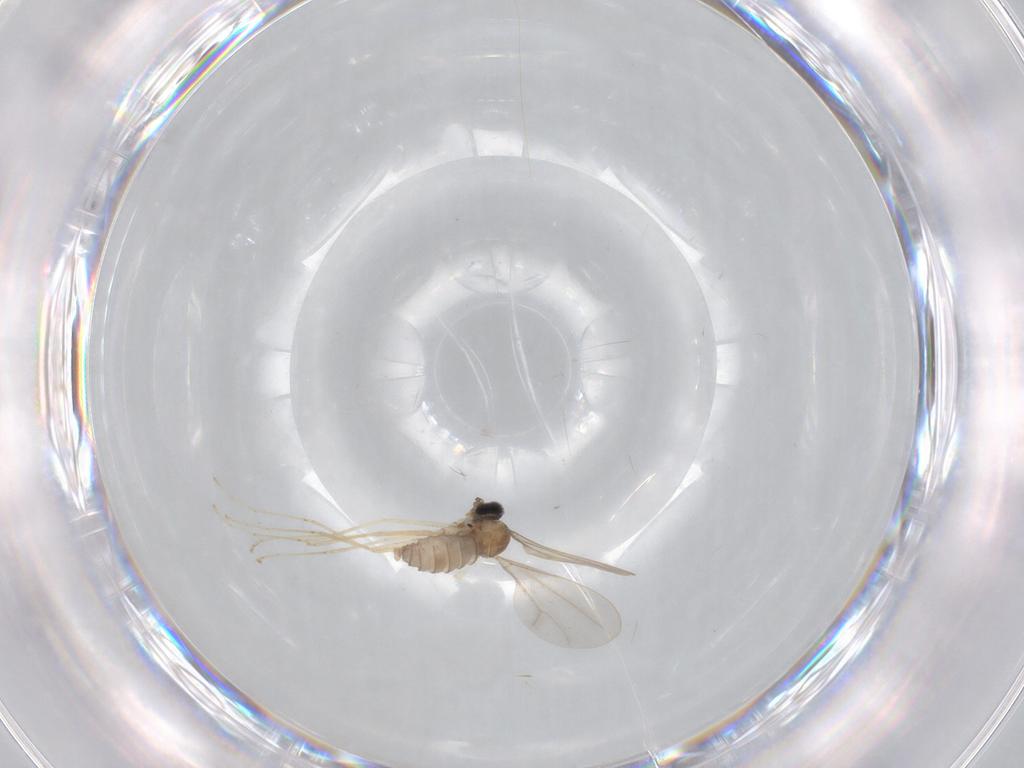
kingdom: Animalia
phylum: Arthropoda
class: Insecta
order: Diptera
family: Cecidomyiidae
